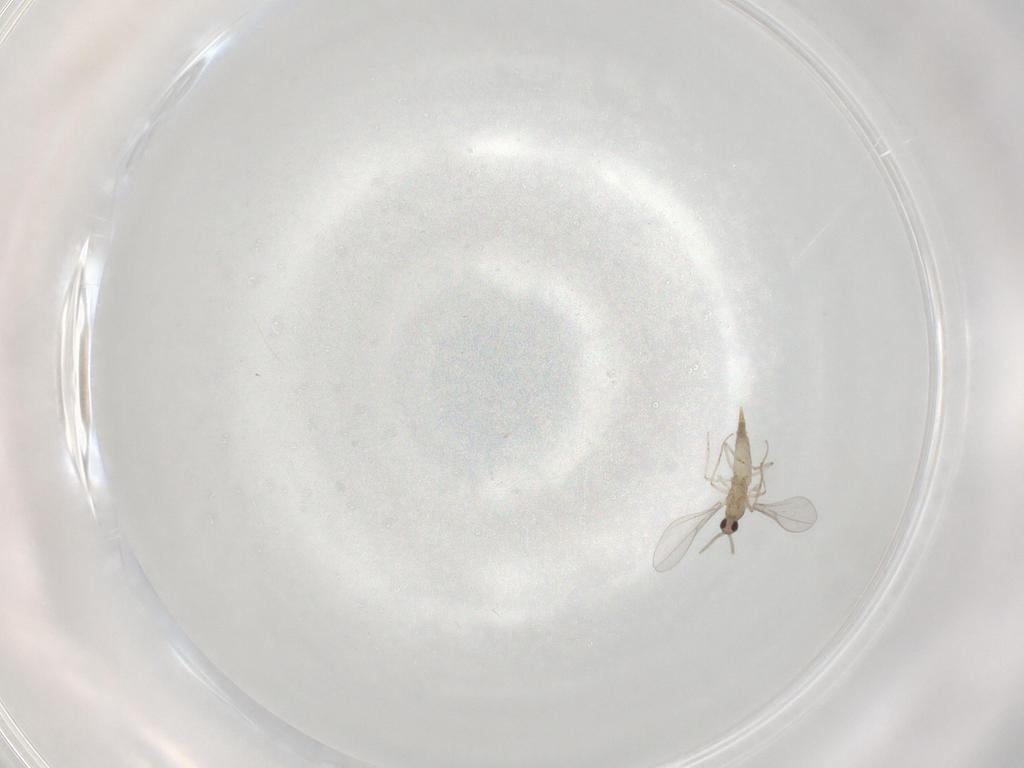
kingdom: Animalia
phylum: Arthropoda
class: Insecta
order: Diptera
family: Cecidomyiidae
